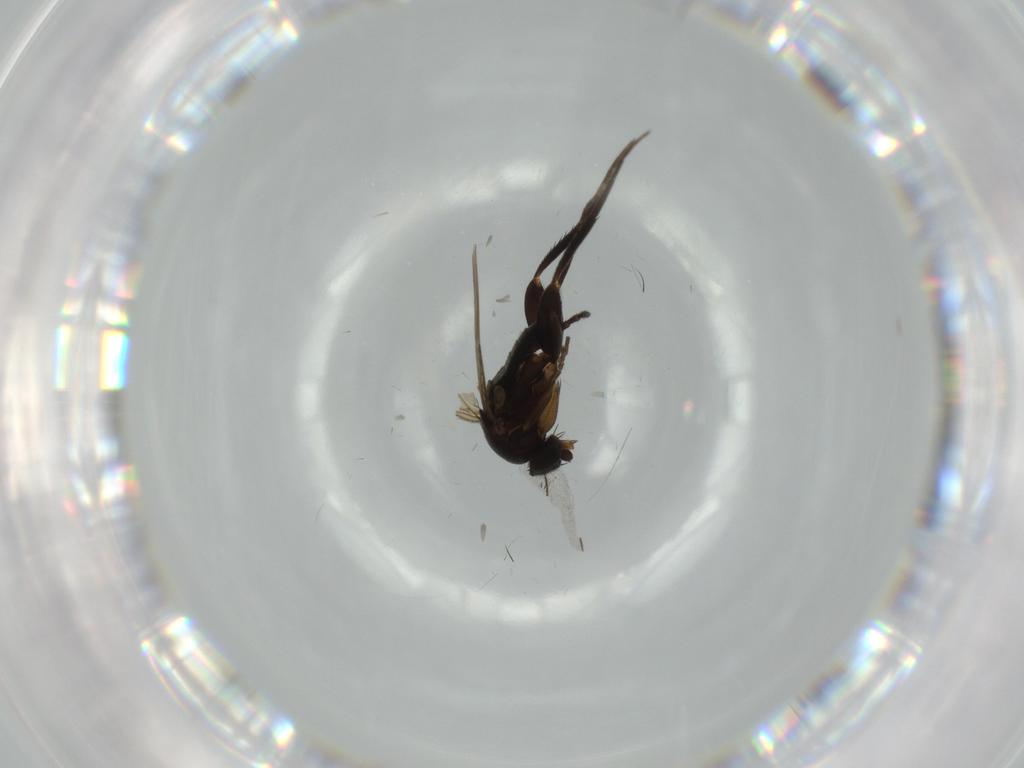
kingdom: Animalia
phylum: Arthropoda
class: Insecta
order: Diptera
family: Phoridae
